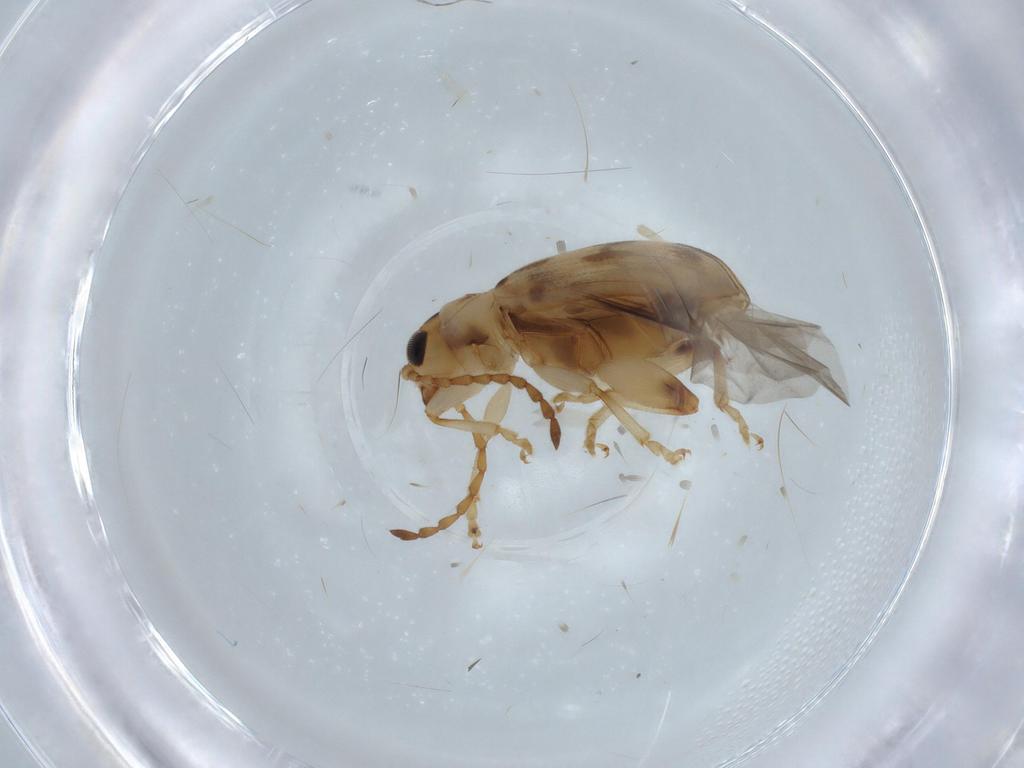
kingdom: Animalia
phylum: Arthropoda
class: Insecta
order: Coleoptera
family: Chrysomelidae
